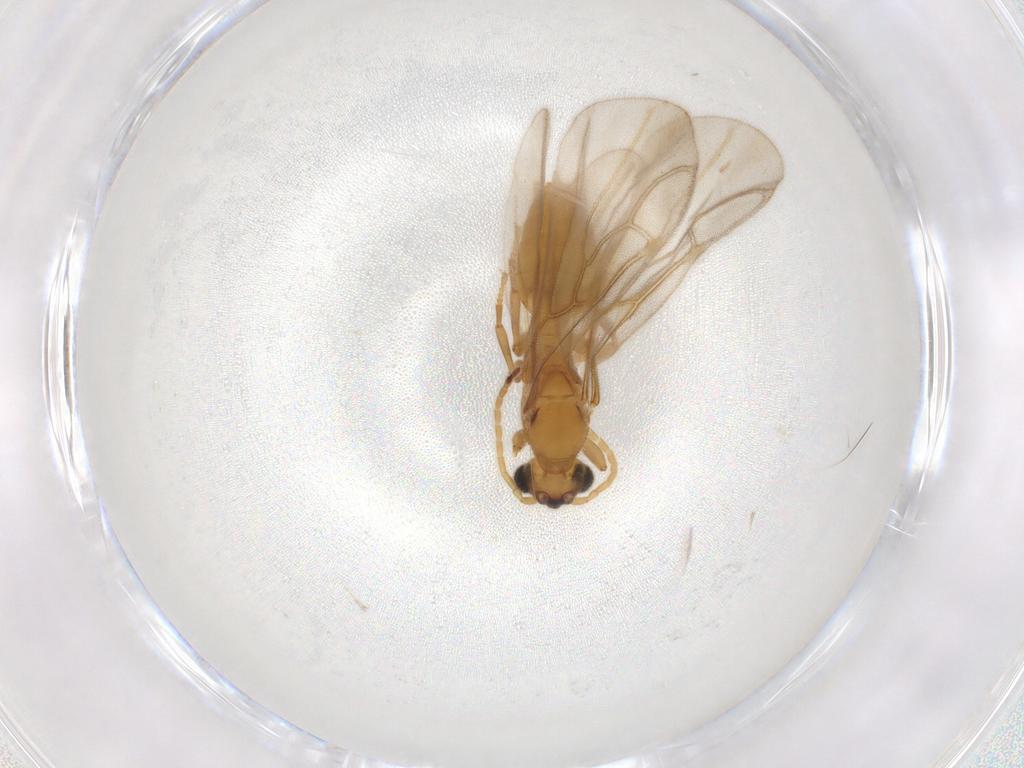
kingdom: Animalia
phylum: Arthropoda
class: Insecta
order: Hymenoptera
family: Formicidae
